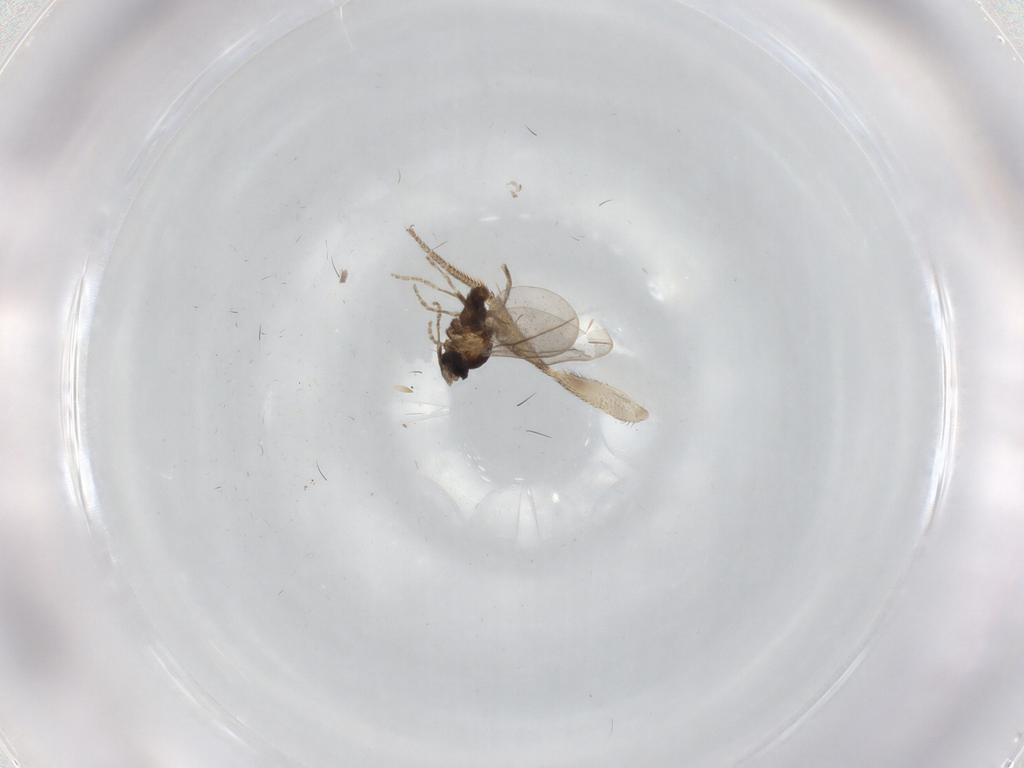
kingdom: Animalia
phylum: Arthropoda
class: Insecta
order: Diptera
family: Drosophilidae
